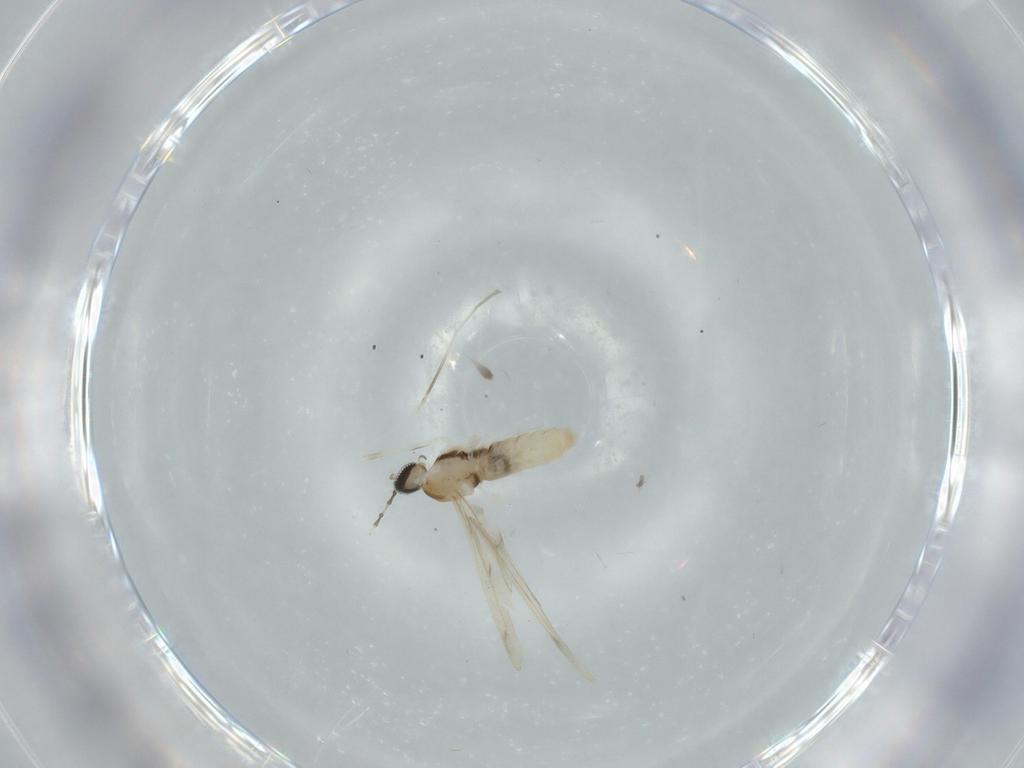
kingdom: Animalia
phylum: Arthropoda
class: Insecta
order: Diptera
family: Cecidomyiidae
